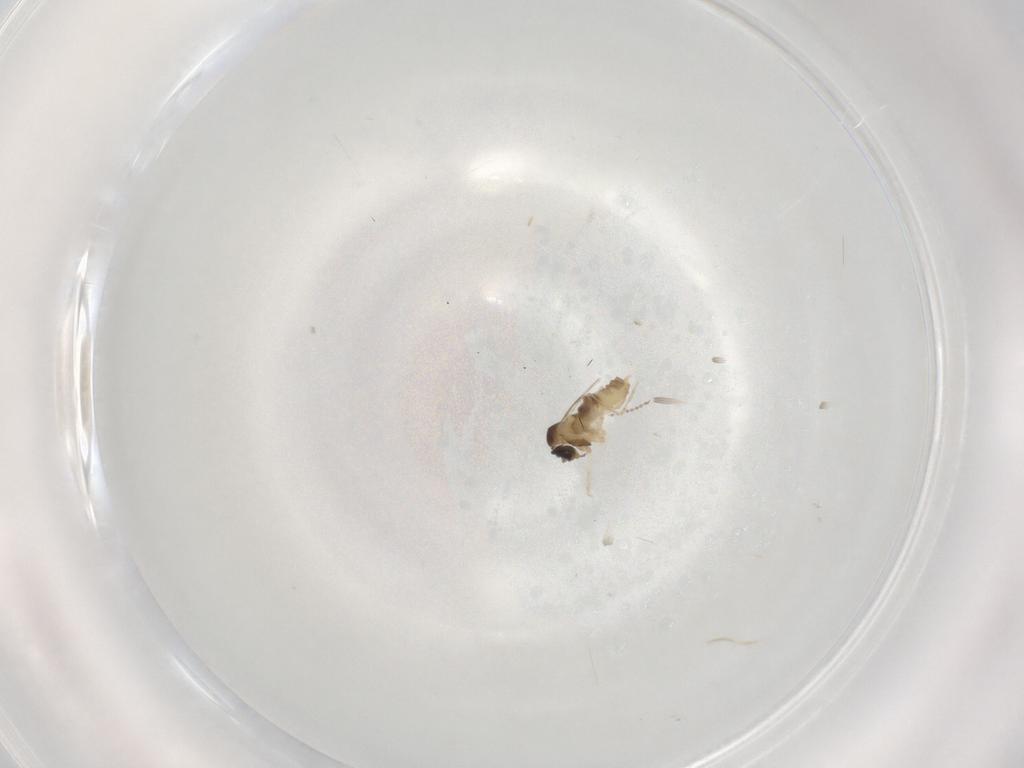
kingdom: Animalia
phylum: Arthropoda
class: Insecta
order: Diptera
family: Cecidomyiidae
